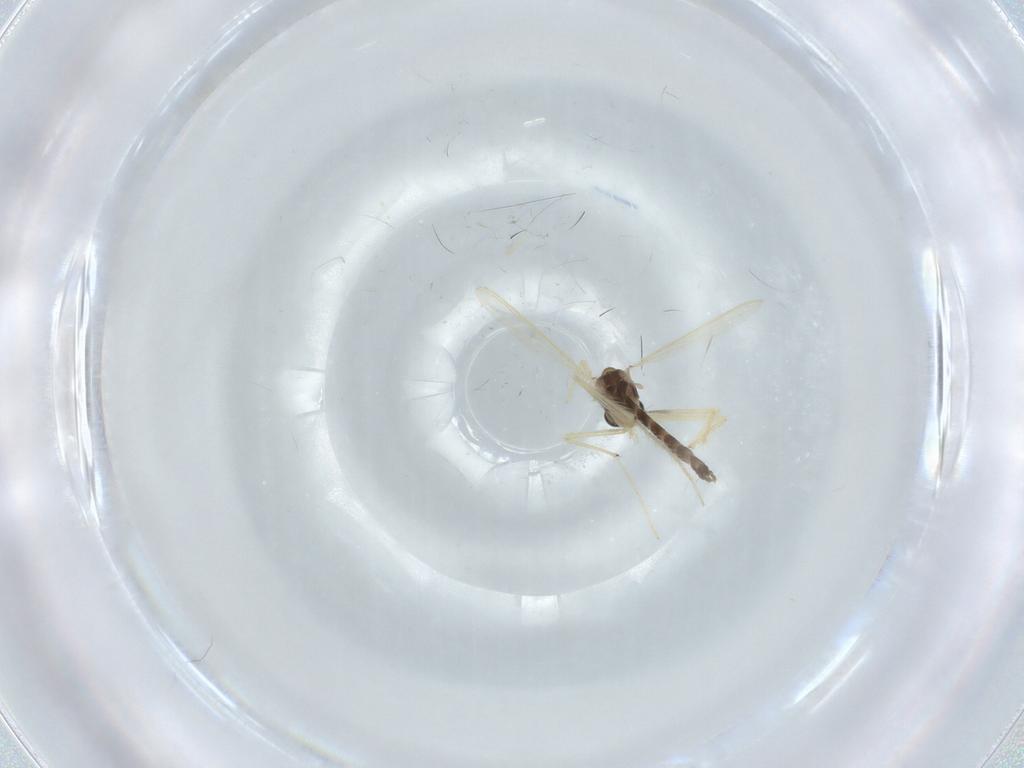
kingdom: Animalia
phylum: Arthropoda
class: Insecta
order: Diptera
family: Chironomidae
